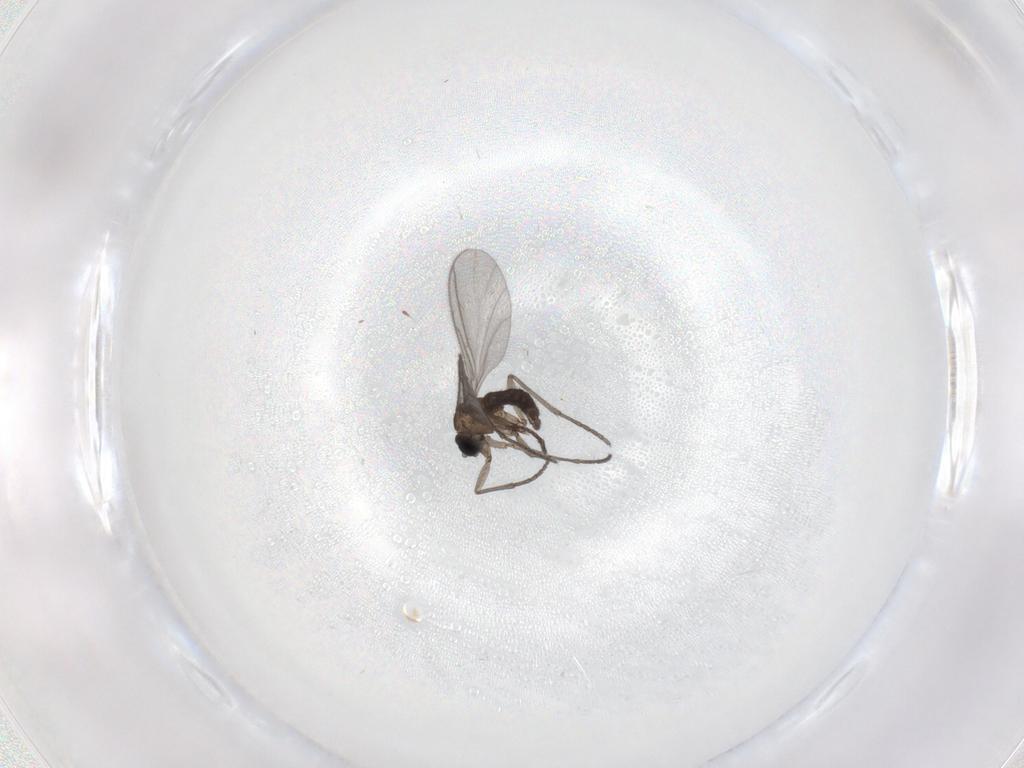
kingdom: Animalia
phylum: Arthropoda
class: Insecta
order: Diptera
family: Sciaridae
